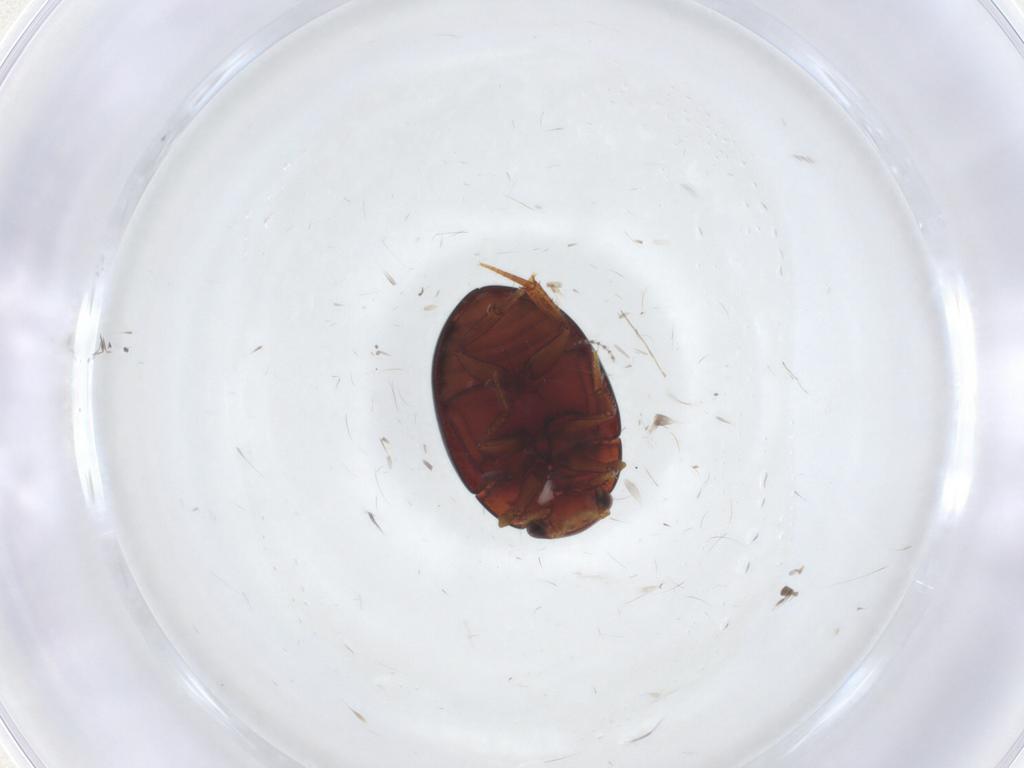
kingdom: Animalia
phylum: Arthropoda
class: Insecta
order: Coleoptera
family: Hydrophilidae
